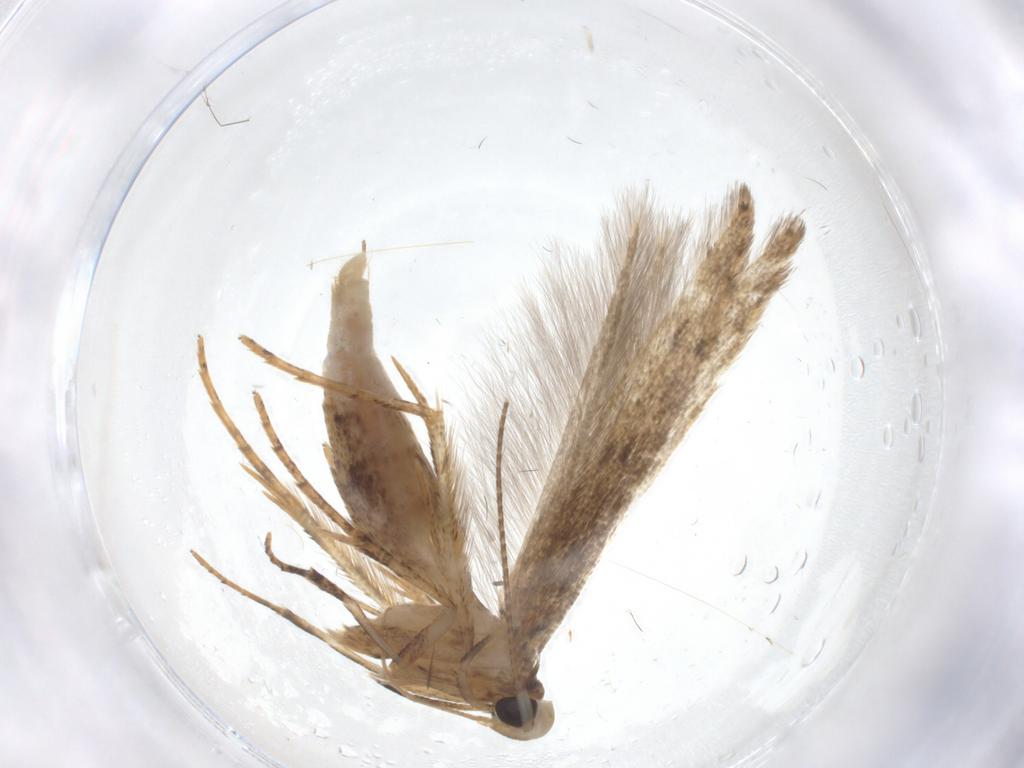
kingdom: Animalia
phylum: Arthropoda
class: Insecta
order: Lepidoptera
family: Erebidae
